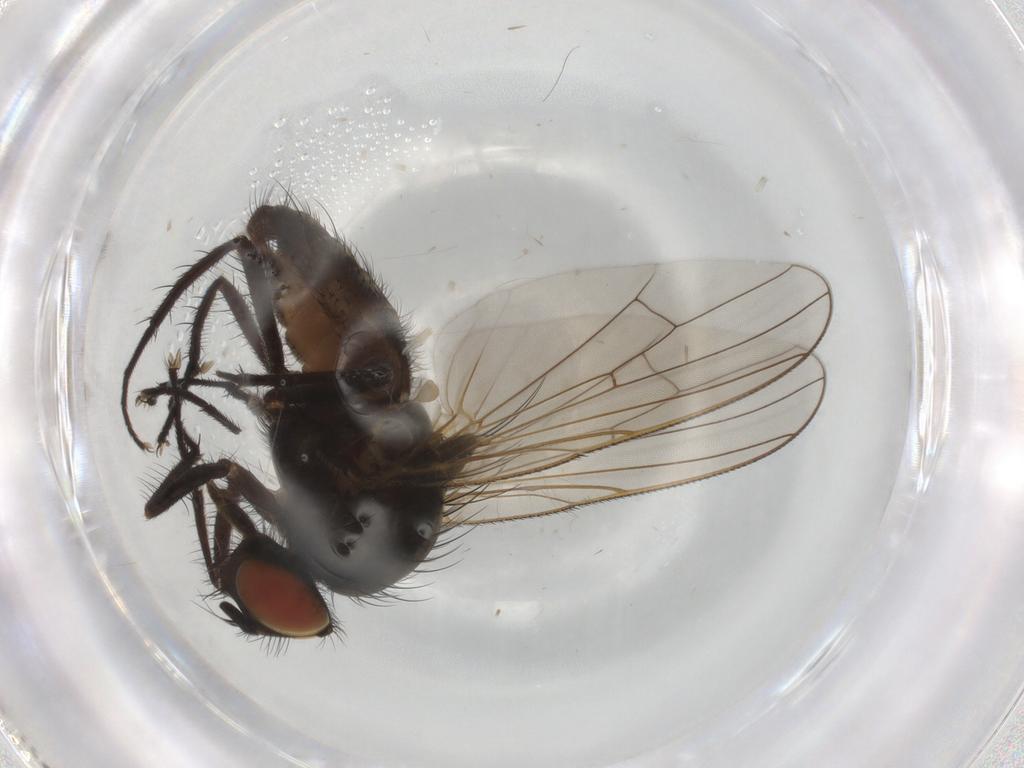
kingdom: Animalia
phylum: Arthropoda
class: Insecta
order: Diptera
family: Anthomyiidae
